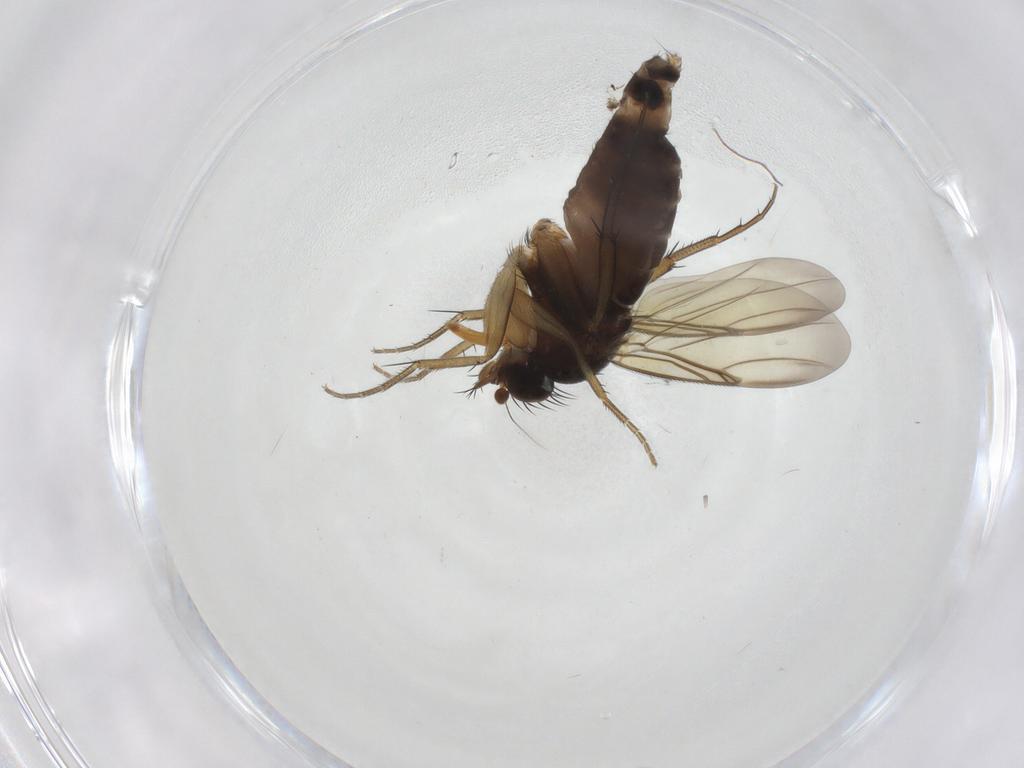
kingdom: Animalia
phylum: Arthropoda
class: Insecta
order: Diptera
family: Phoridae
